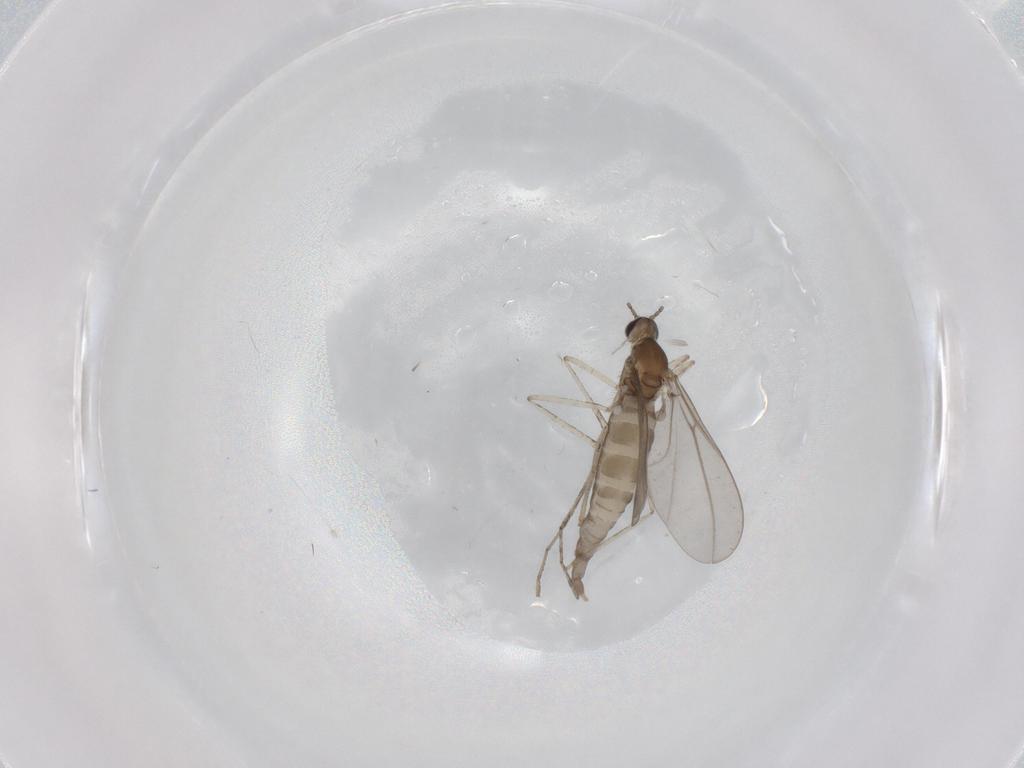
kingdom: Animalia
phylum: Arthropoda
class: Insecta
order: Diptera
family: Cecidomyiidae
